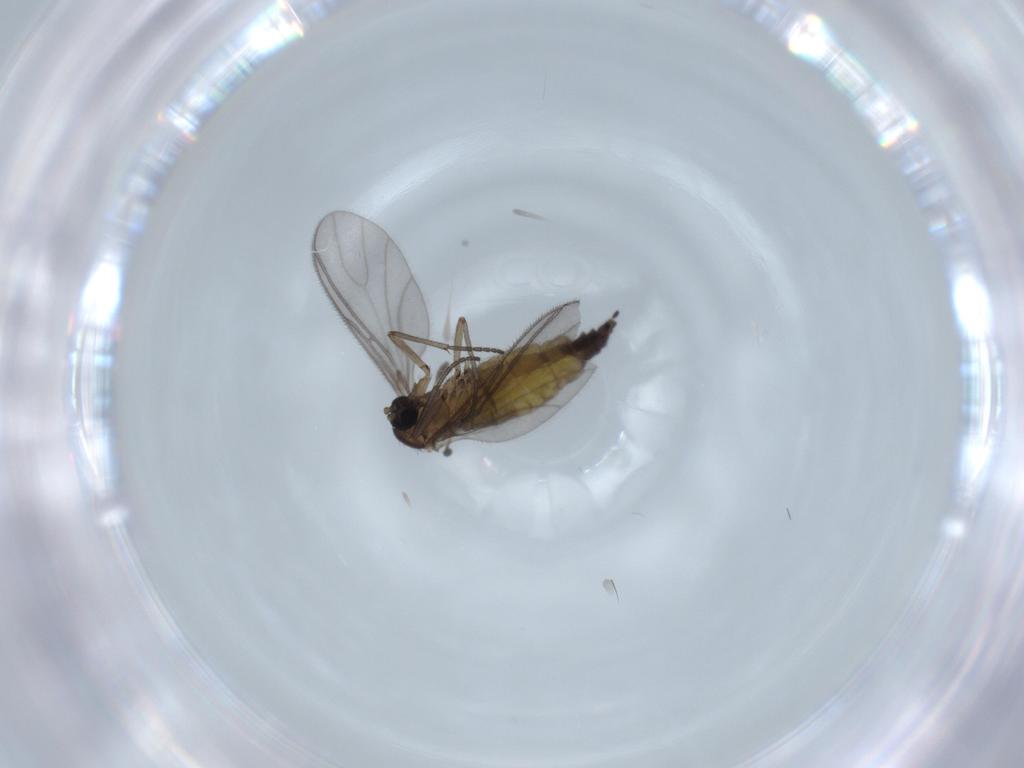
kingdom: Animalia
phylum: Arthropoda
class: Insecta
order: Diptera
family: Sciaridae
